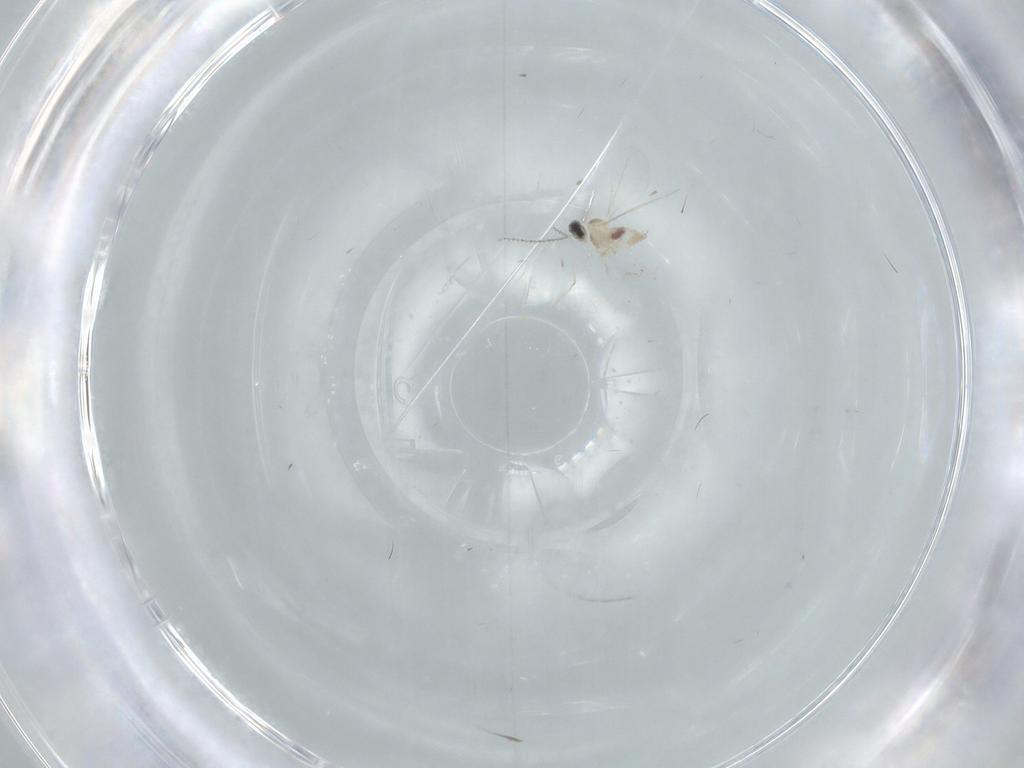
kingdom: Animalia
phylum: Arthropoda
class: Insecta
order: Diptera
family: Cecidomyiidae
